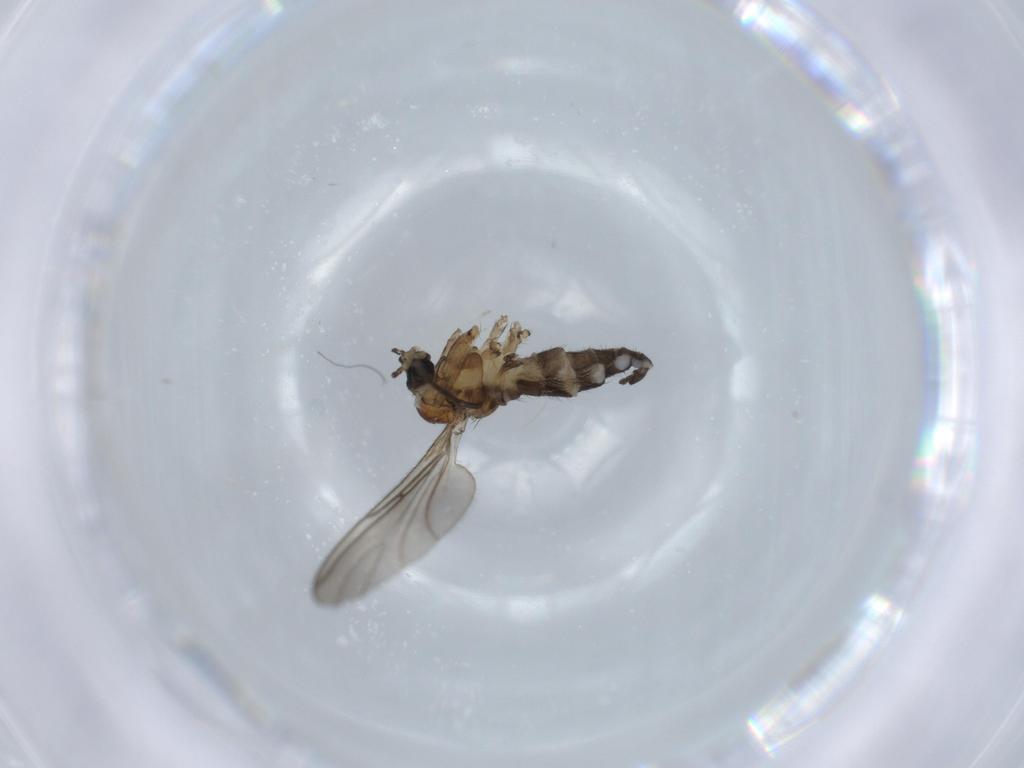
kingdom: Animalia
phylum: Arthropoda
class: Insecta
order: Diptera
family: Sciaridae
